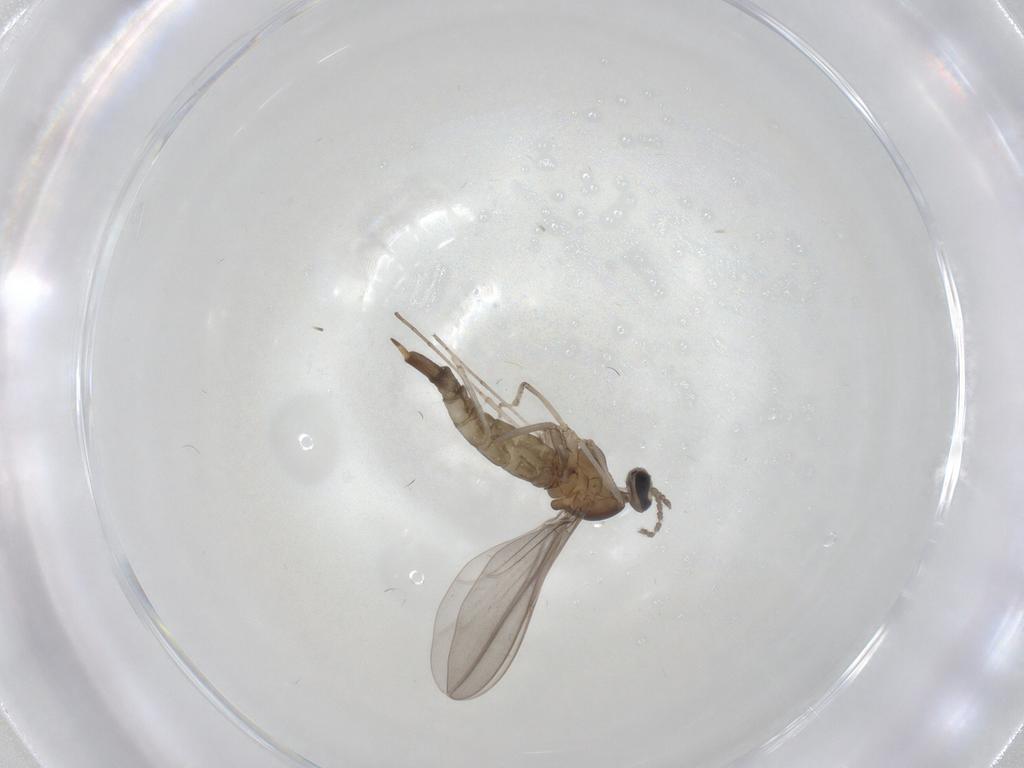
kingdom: Animalia
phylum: Arthropoda
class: Insecta
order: Diptera
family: Cecidomyiidae
